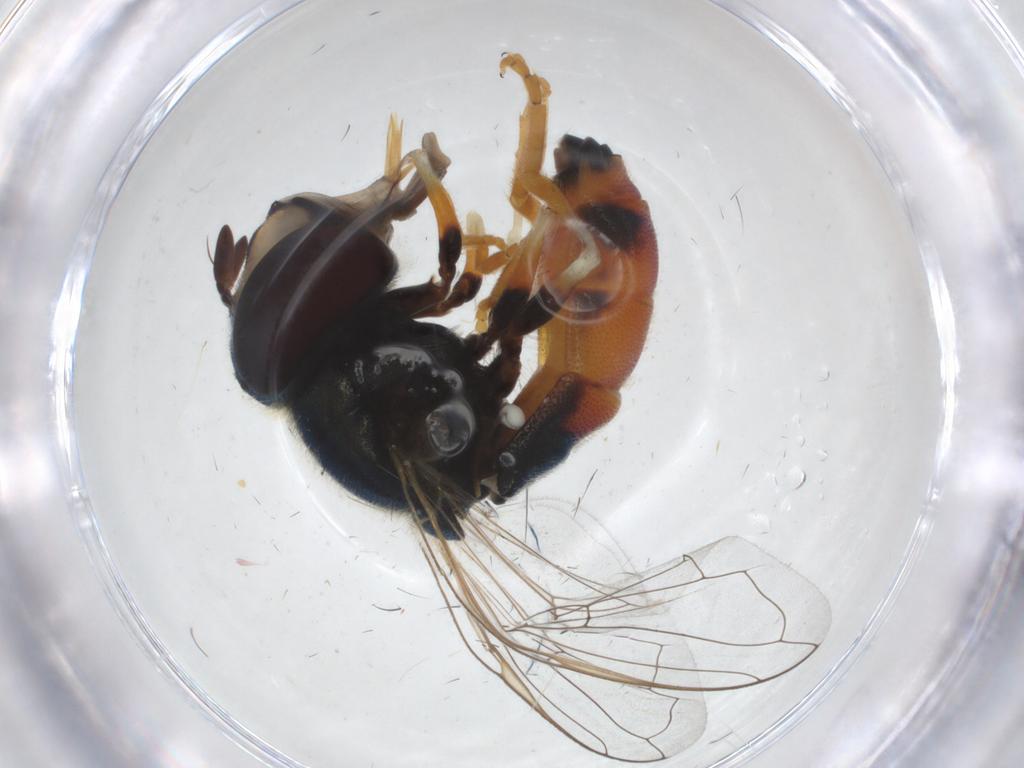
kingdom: Animalia
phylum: Arthropoda
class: Insecta
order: Diptera
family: Syrphidae
